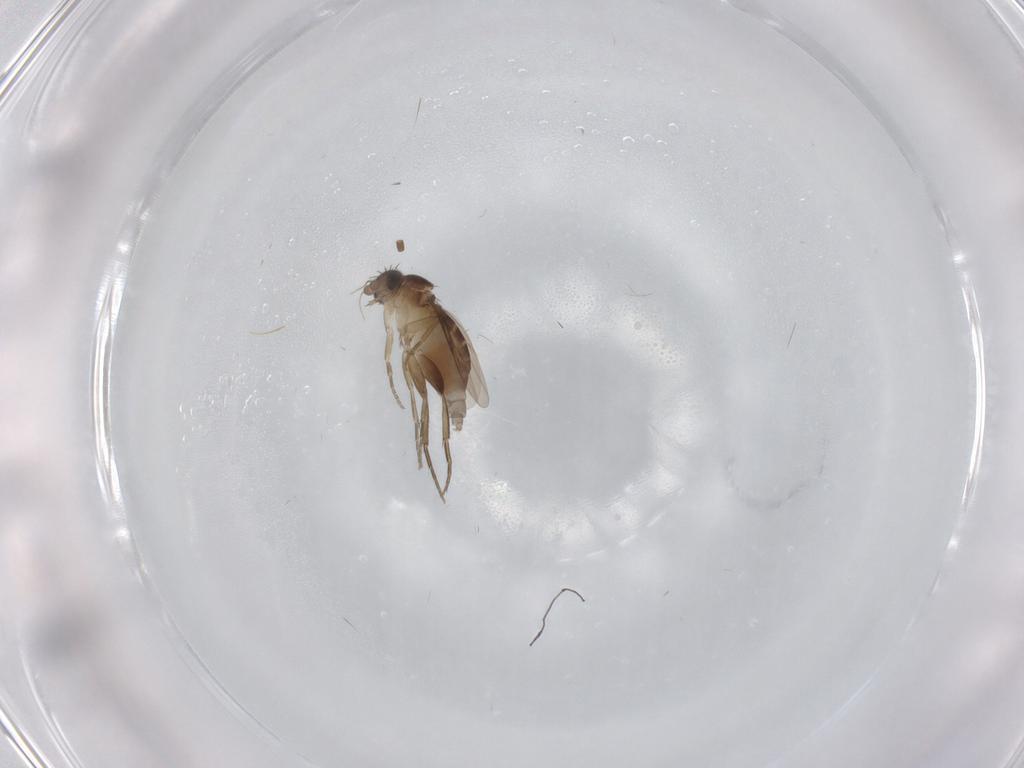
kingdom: Animalia
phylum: Arthropoda
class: Insecta
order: Diptera
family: Phoridae
